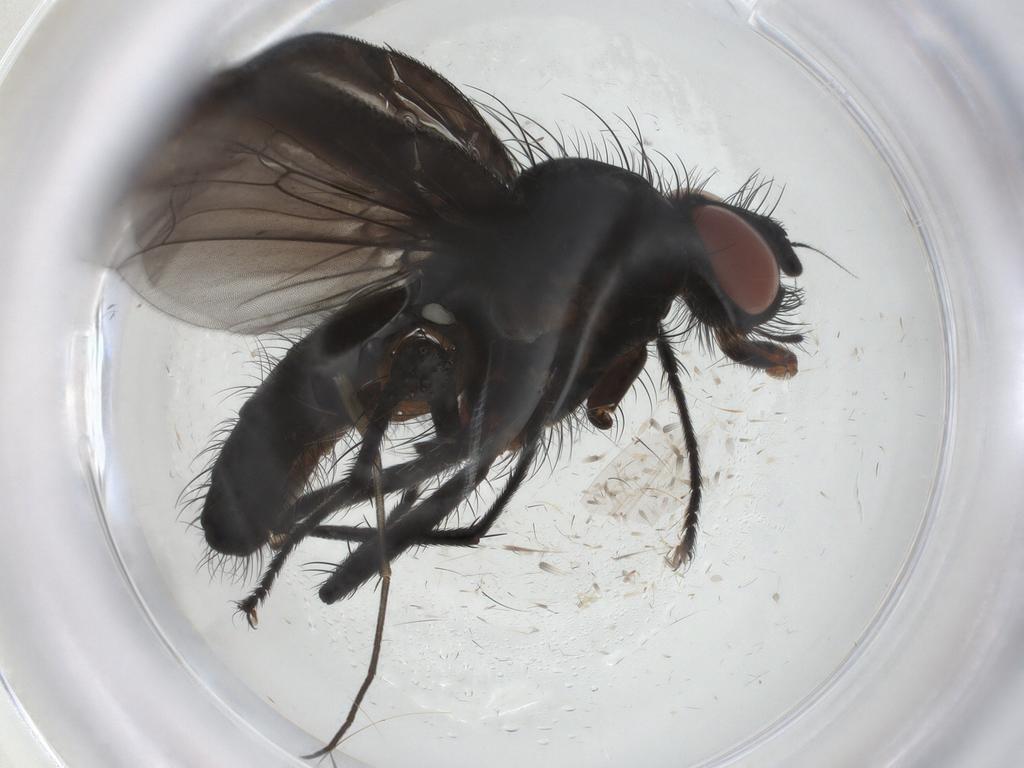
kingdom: Animalia
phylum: Arthropoda
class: Insecta
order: Diptera
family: Anthomyiidae
